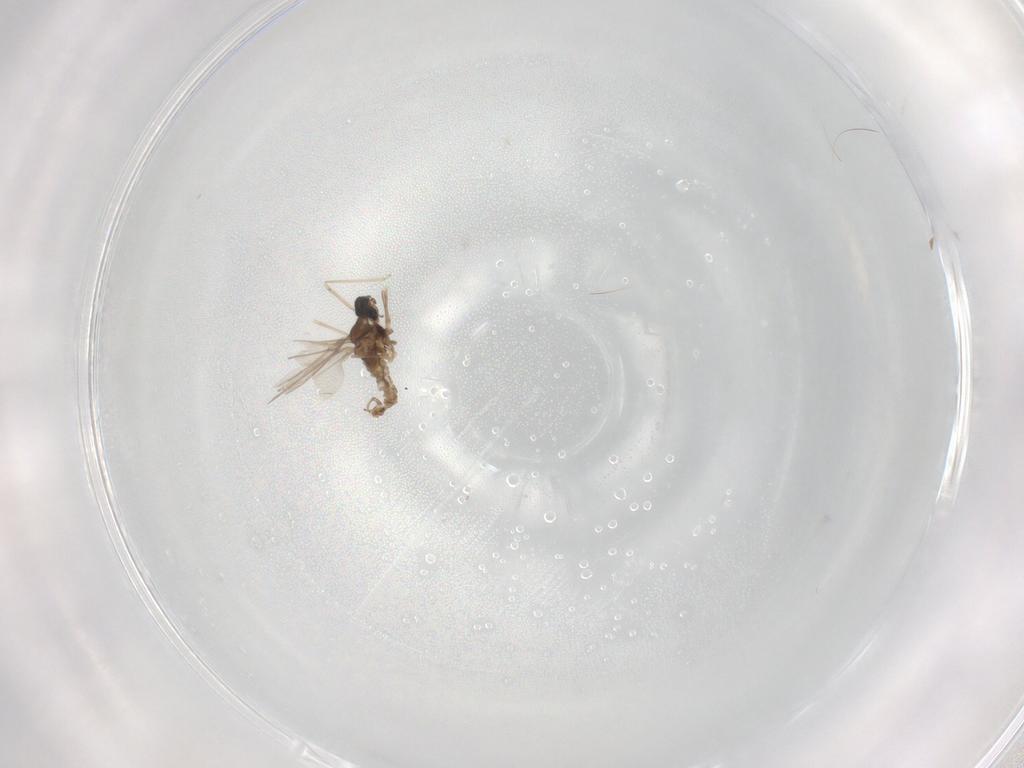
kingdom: Animalia
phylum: Arthropoda
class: Insecta
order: Diptera
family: Cecidomyiidae
